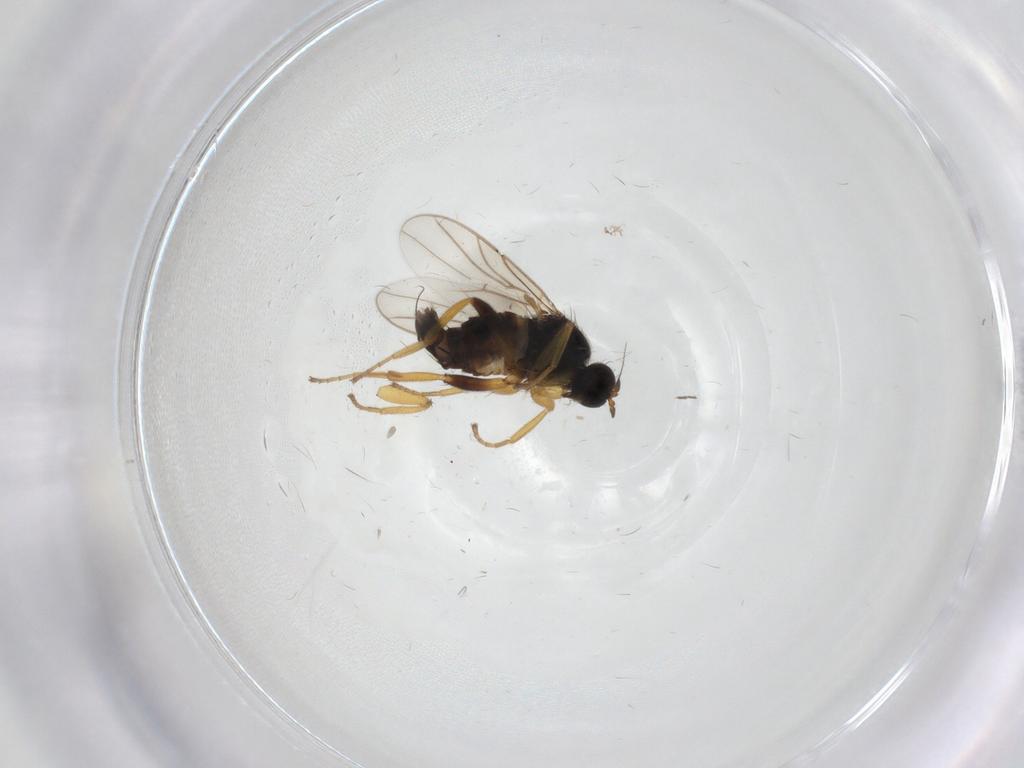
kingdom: Animalia
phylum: Arthropoda
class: Insecta
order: Diptera
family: Hybotidae
